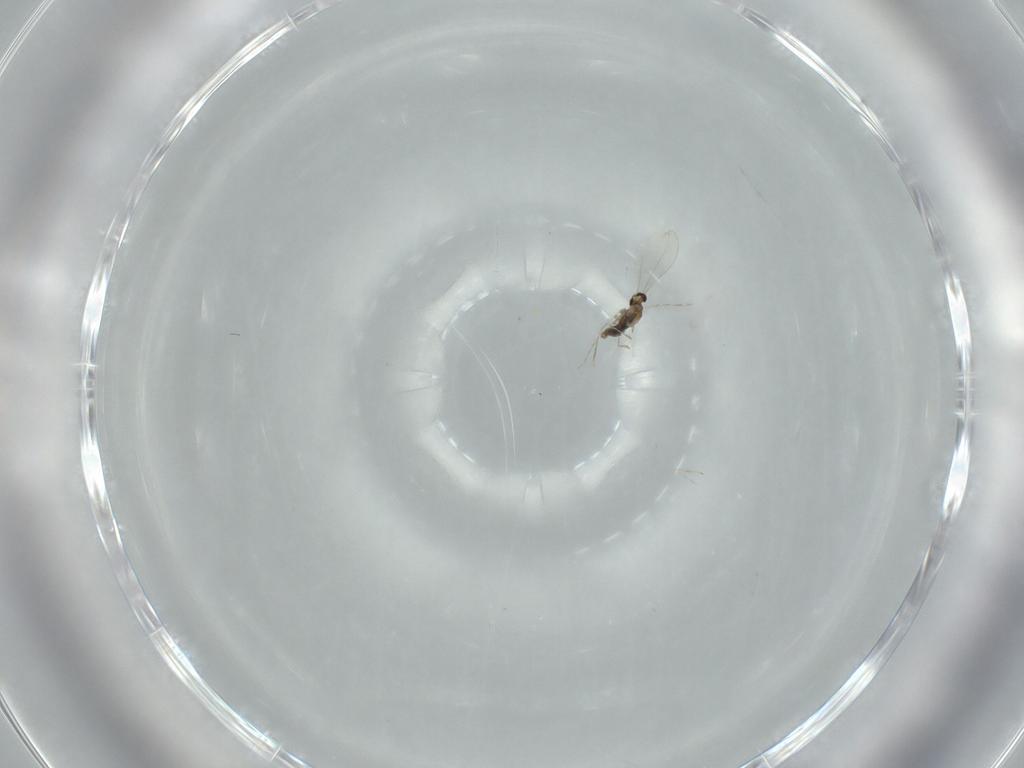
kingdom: Animalia
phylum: Arthropoda
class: Insecta
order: Diptera
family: Cecidomyiidae
